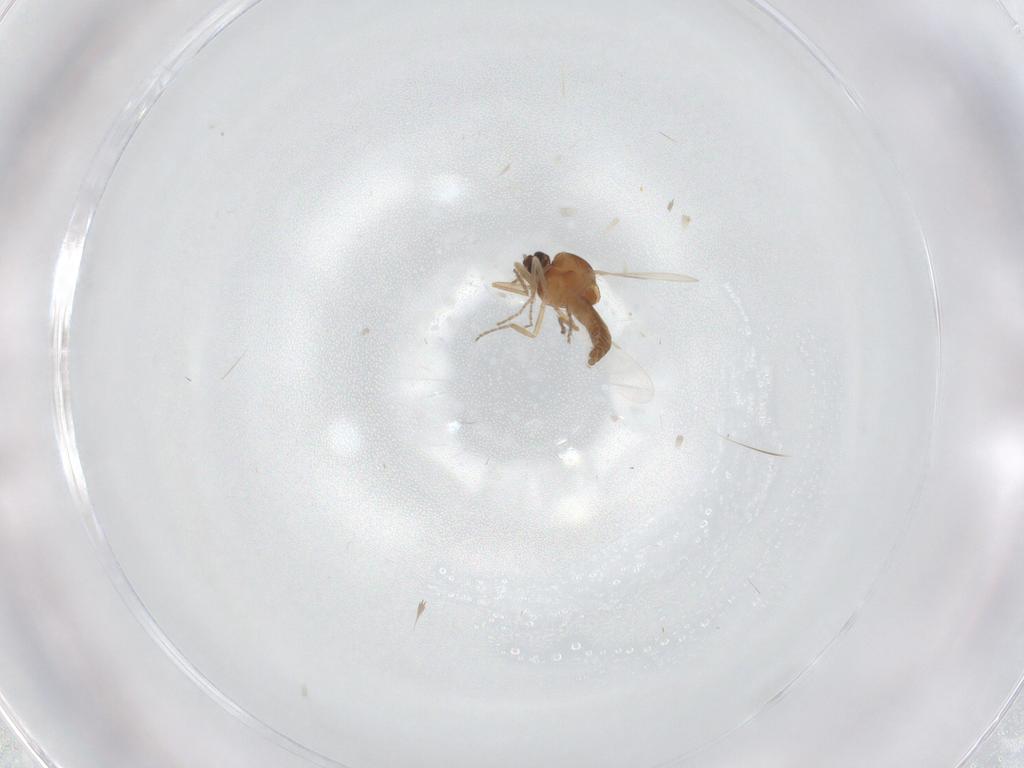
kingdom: Animalia
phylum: Arthropoda
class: Insecta
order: Diptera
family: Ceratopogonidae
